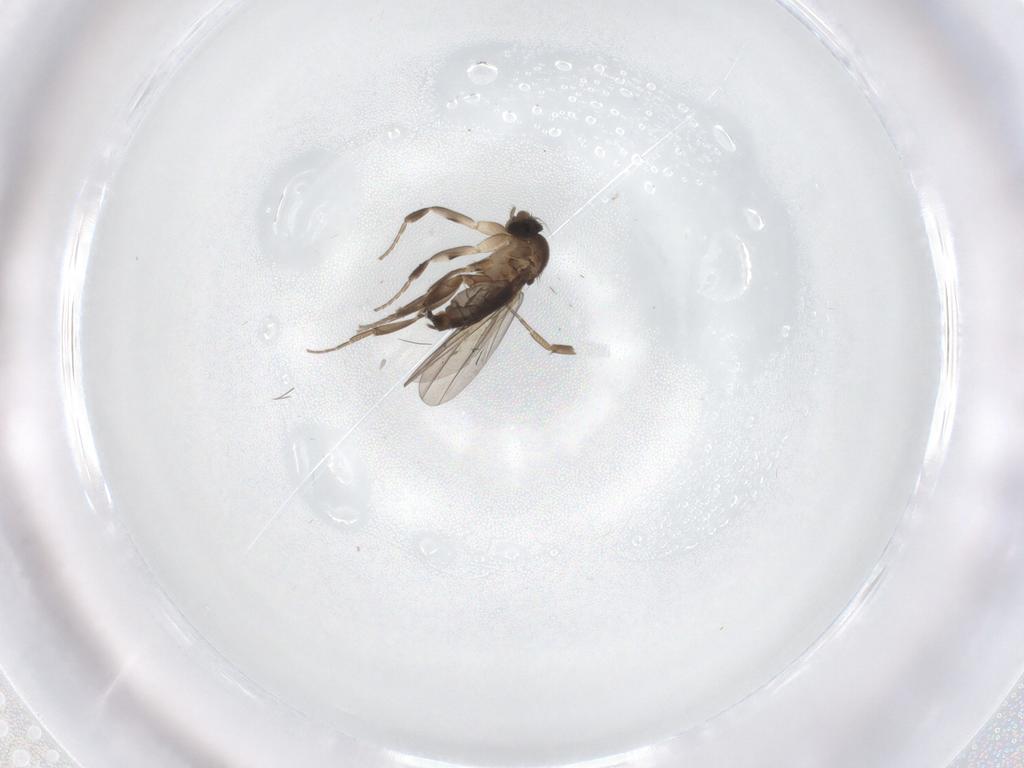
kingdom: Animalia
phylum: Arthropoda
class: Insecta
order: Diptera
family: Phoridae
